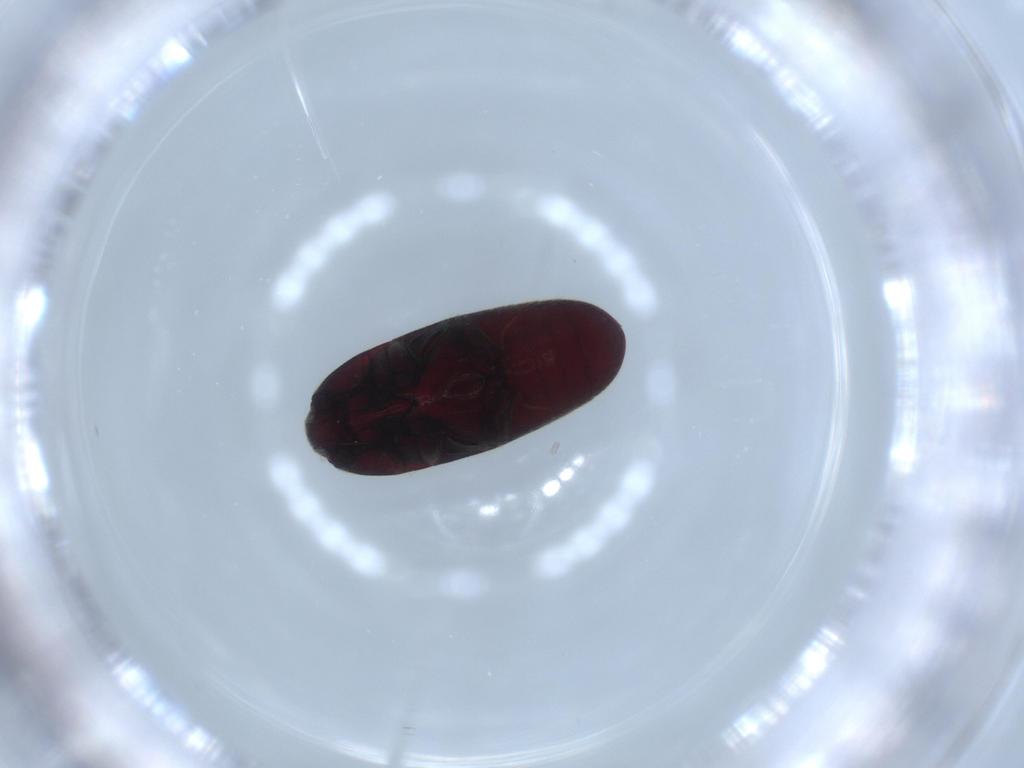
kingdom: Animalia
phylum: Arthropoda
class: Insecta
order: Coleoptera
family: Throscidae
